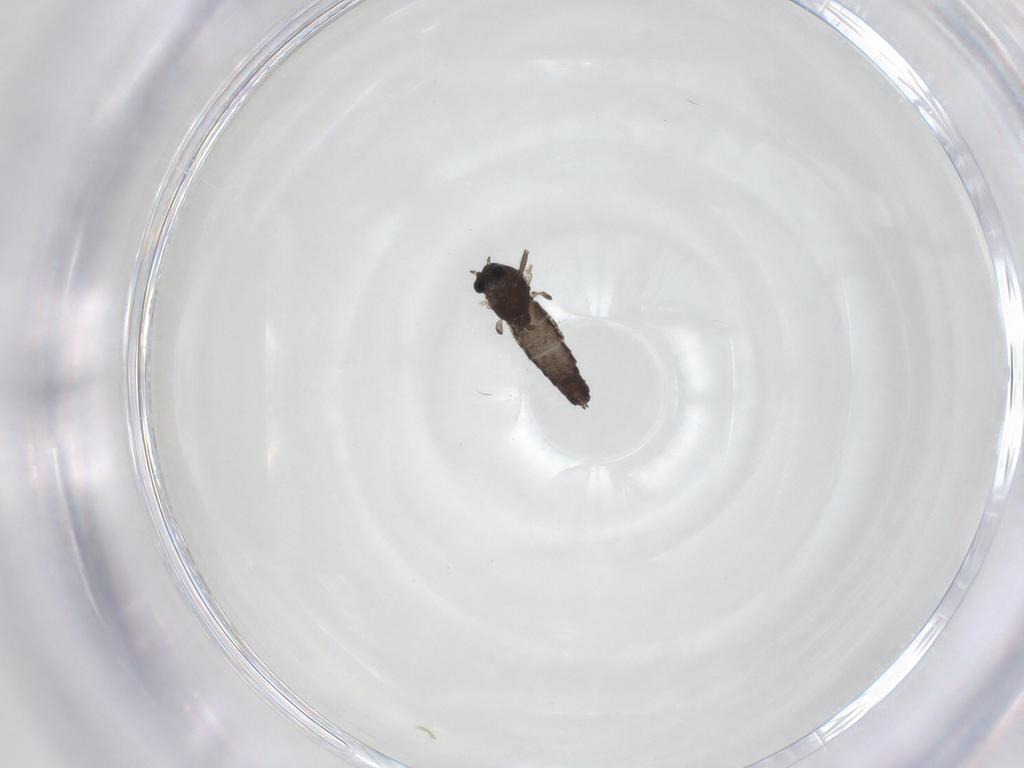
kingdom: Animalia
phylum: Arthropoda
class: Insecta
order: Diptera
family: Chironomidae
